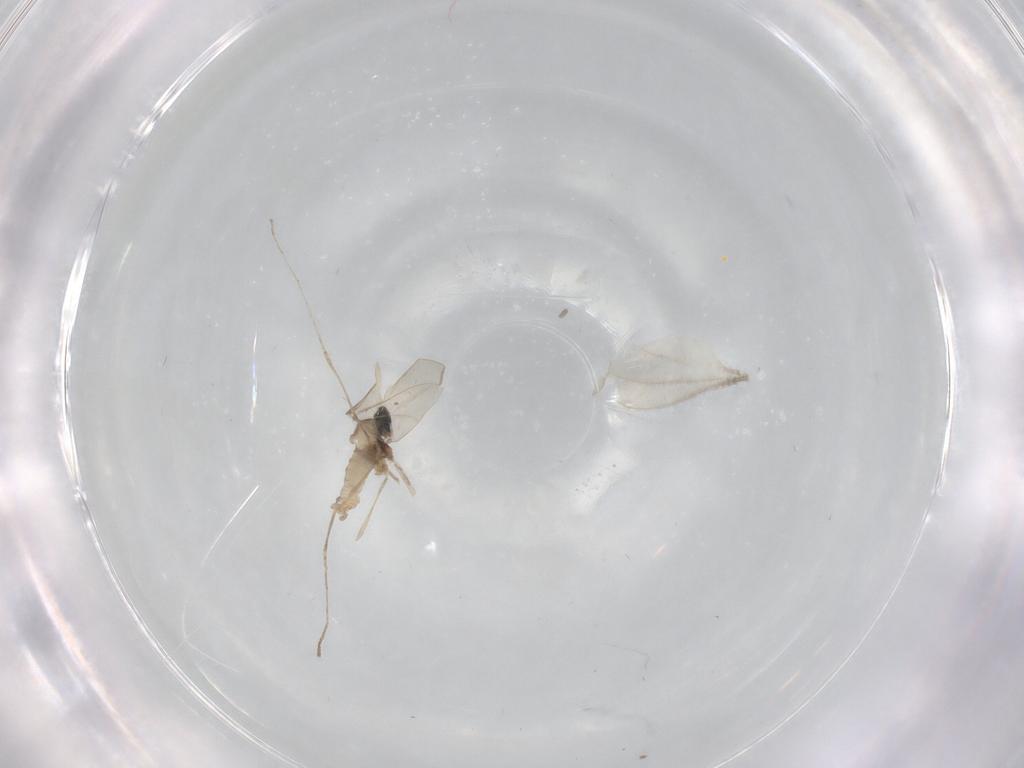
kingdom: Animalia
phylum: Arthropoda
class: Insecta
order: Diptera
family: Cecidomyiidae
